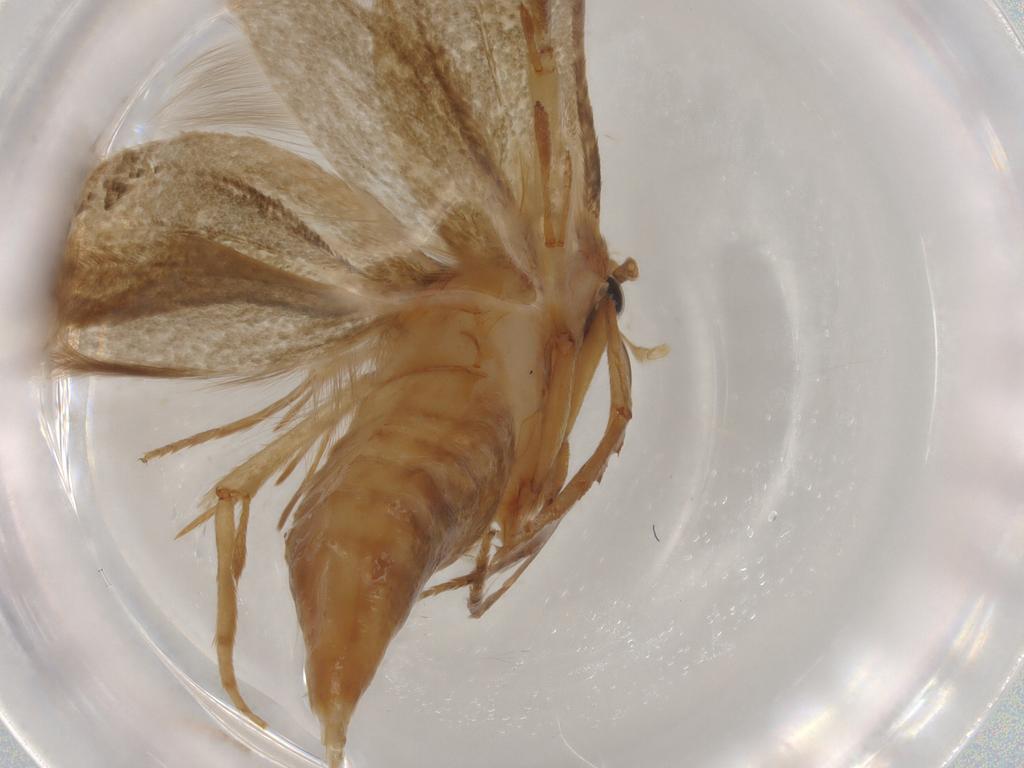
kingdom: Animalia
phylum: Arthropoda
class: Insecta
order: Lepidoptera
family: Tineidae
